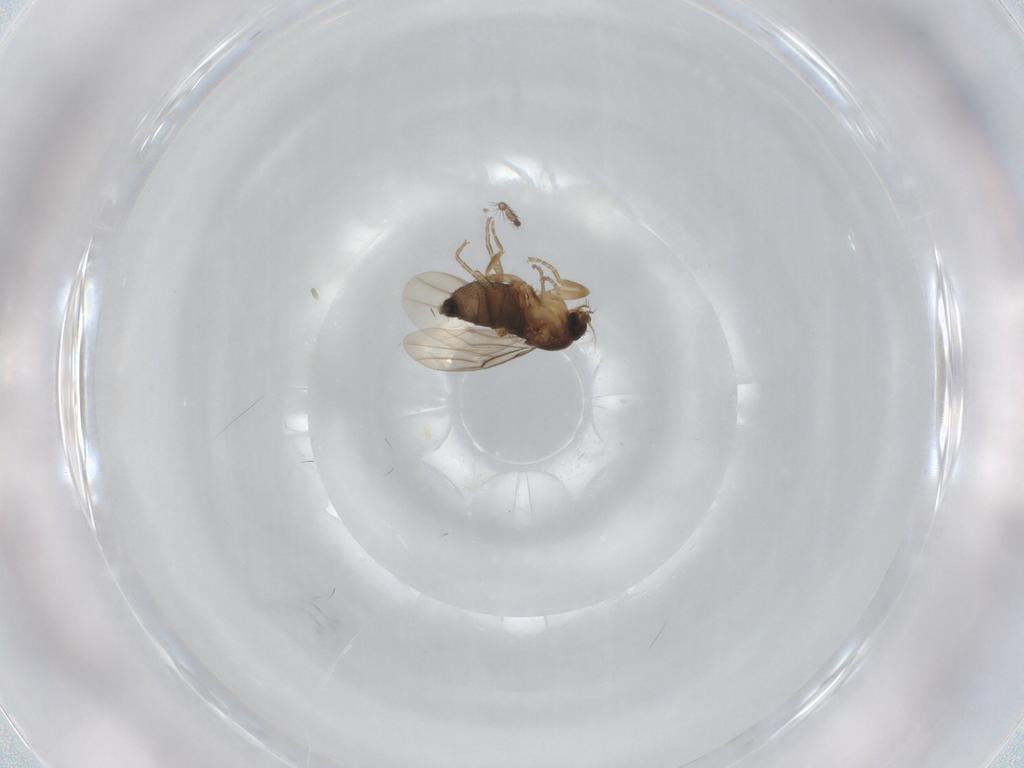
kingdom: Animalia
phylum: Arthropoda
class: Insecta
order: Diptera
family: Phoridae
